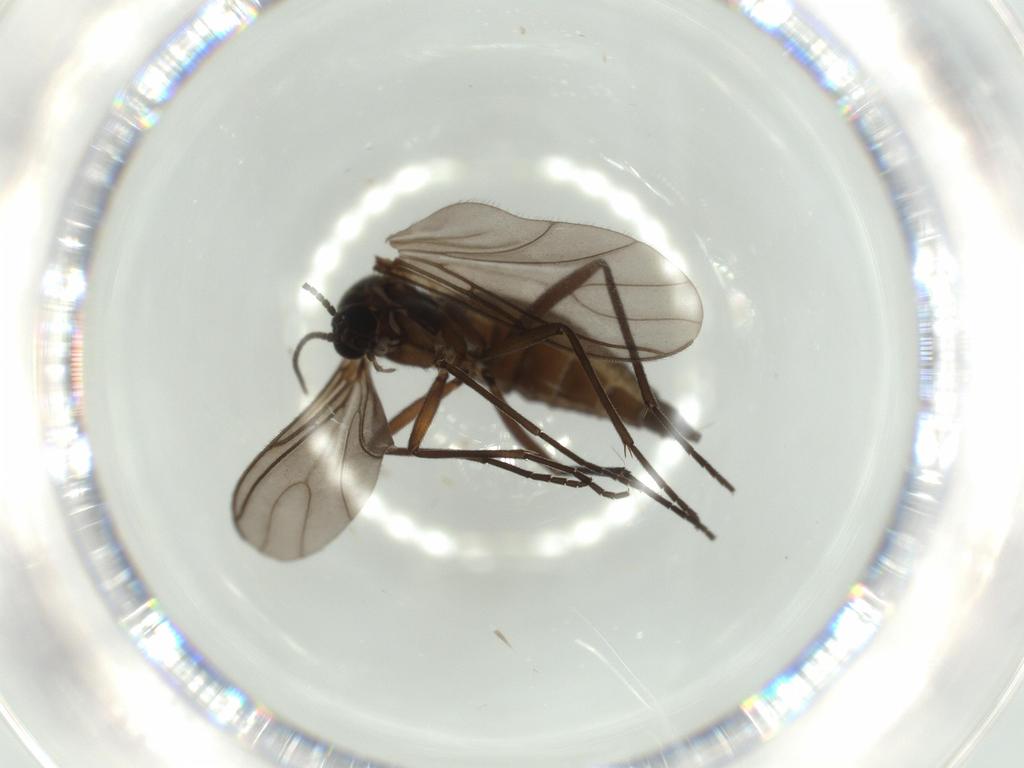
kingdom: Animalia
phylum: Arthropoda
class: Insecta
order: Diptera
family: Sciaridae
